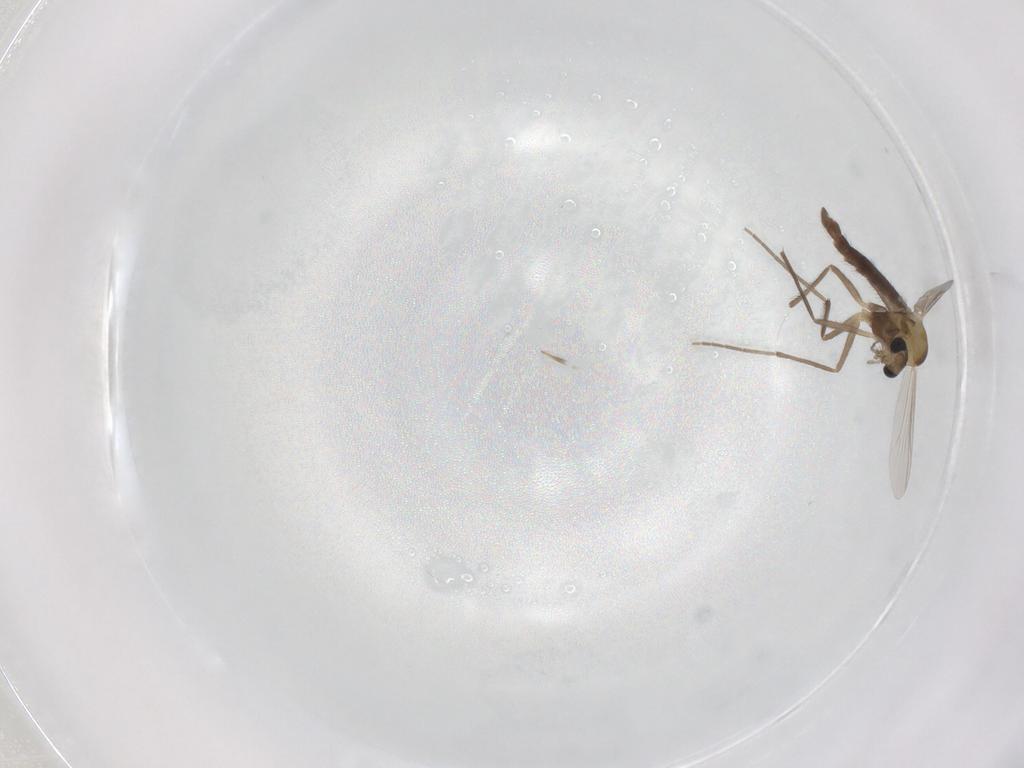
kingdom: Animalia
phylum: Arthropoda
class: Insecta
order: Diptera
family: Chironomidae
